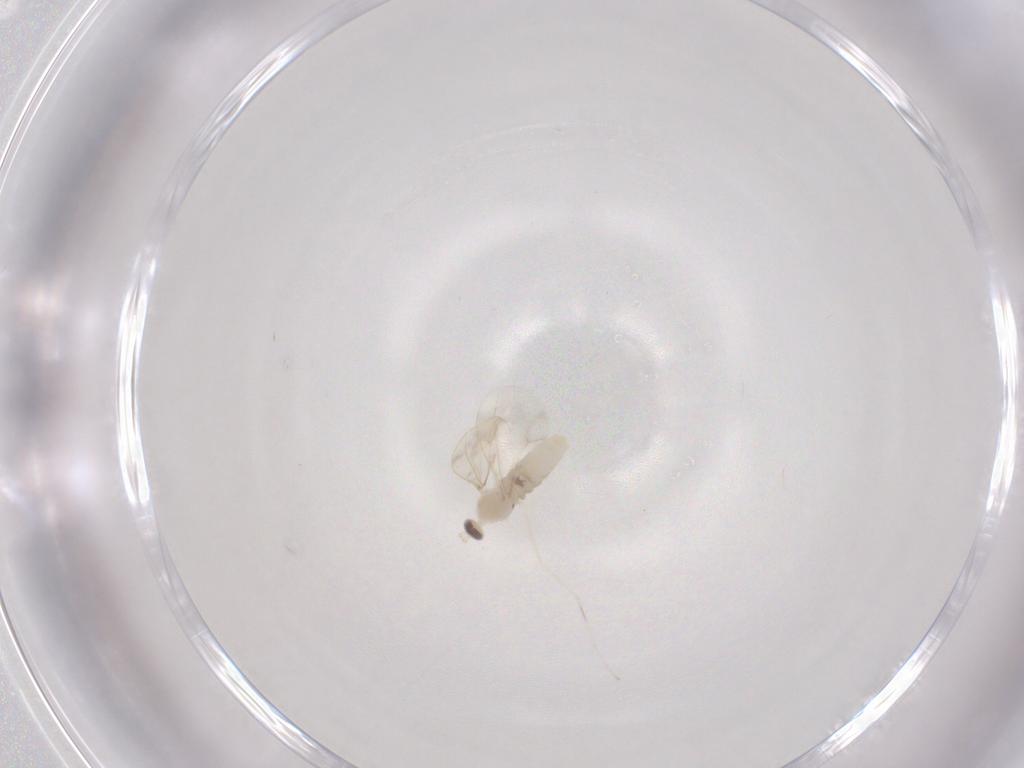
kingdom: Animalia
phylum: Arthropoda
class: Insecta
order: Diptera
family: Cecidomyiidae
